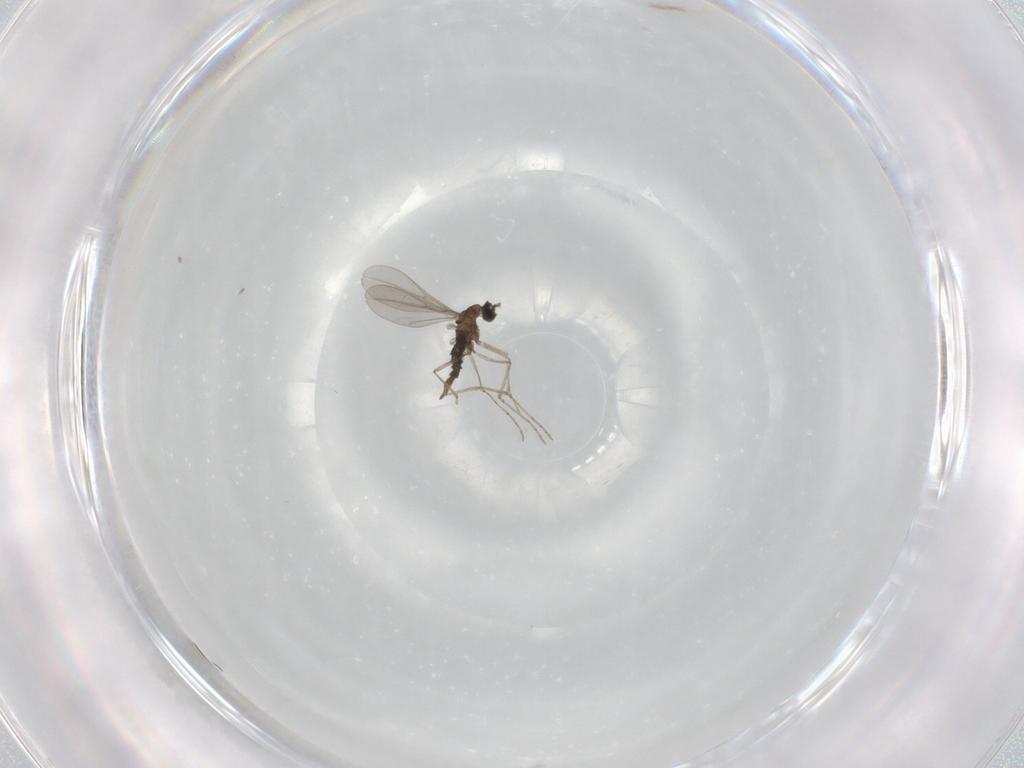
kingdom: Animalia
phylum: Arthropoda
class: Insecta
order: Diptera
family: Cecidomyiidae
